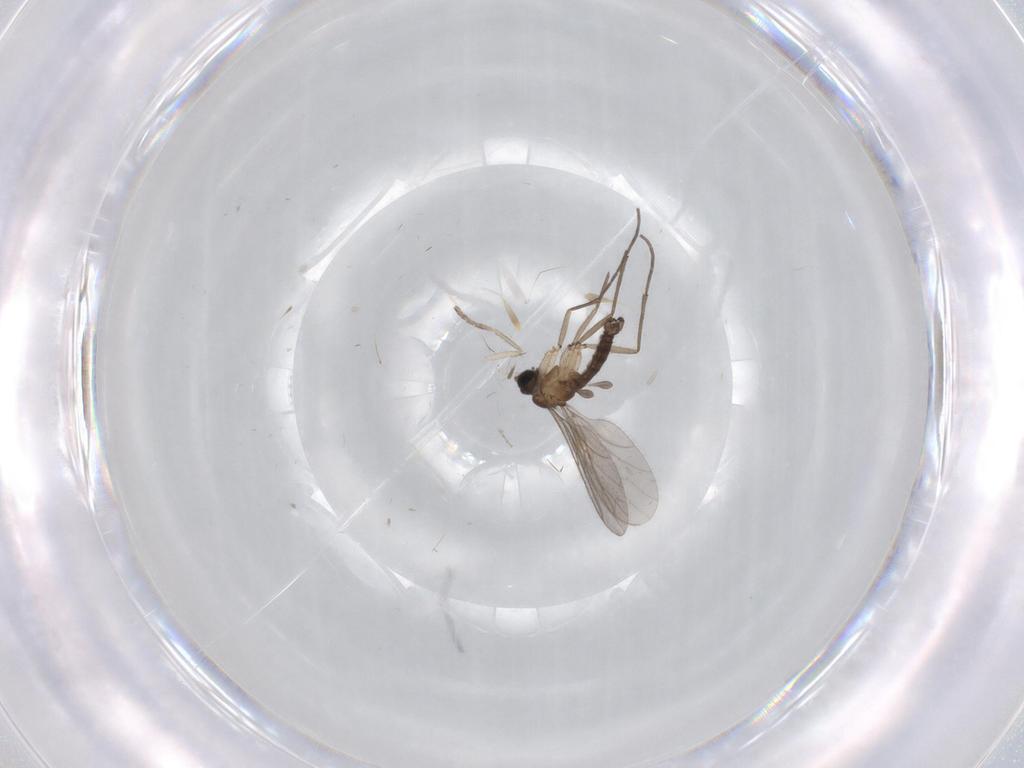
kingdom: Animalia
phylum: Arthropoda
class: Insecta
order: Diptera
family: Sciaridae
